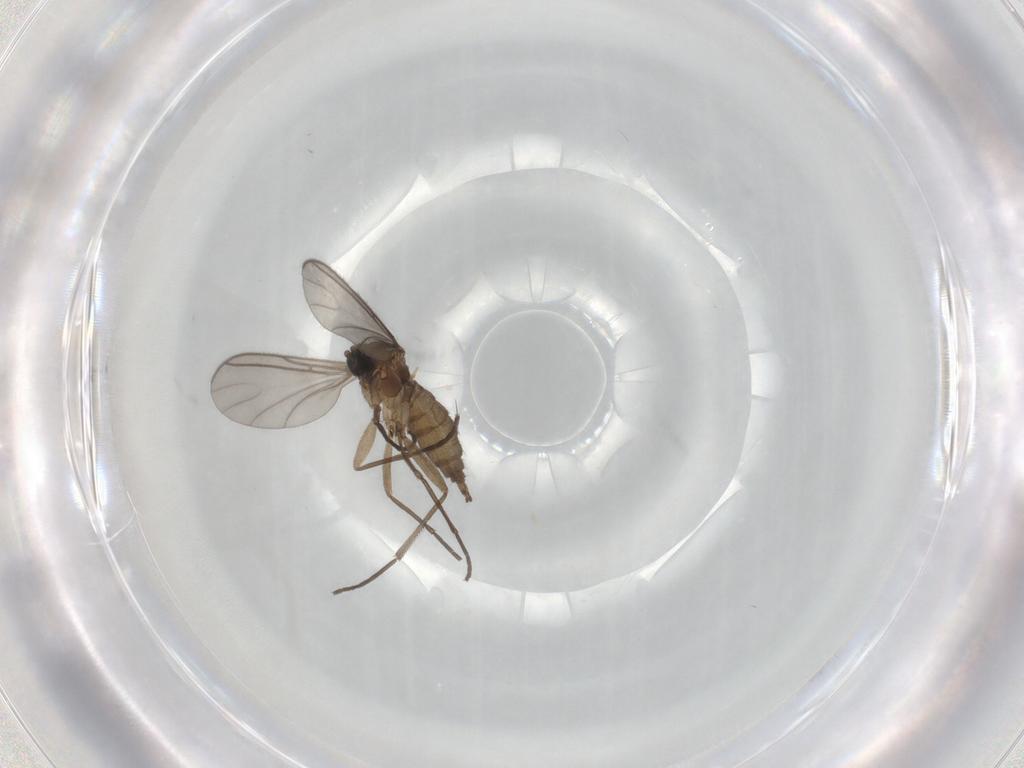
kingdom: Animalia
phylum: Arthropoda
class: Insecta
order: Diptera
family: Sciaridae
